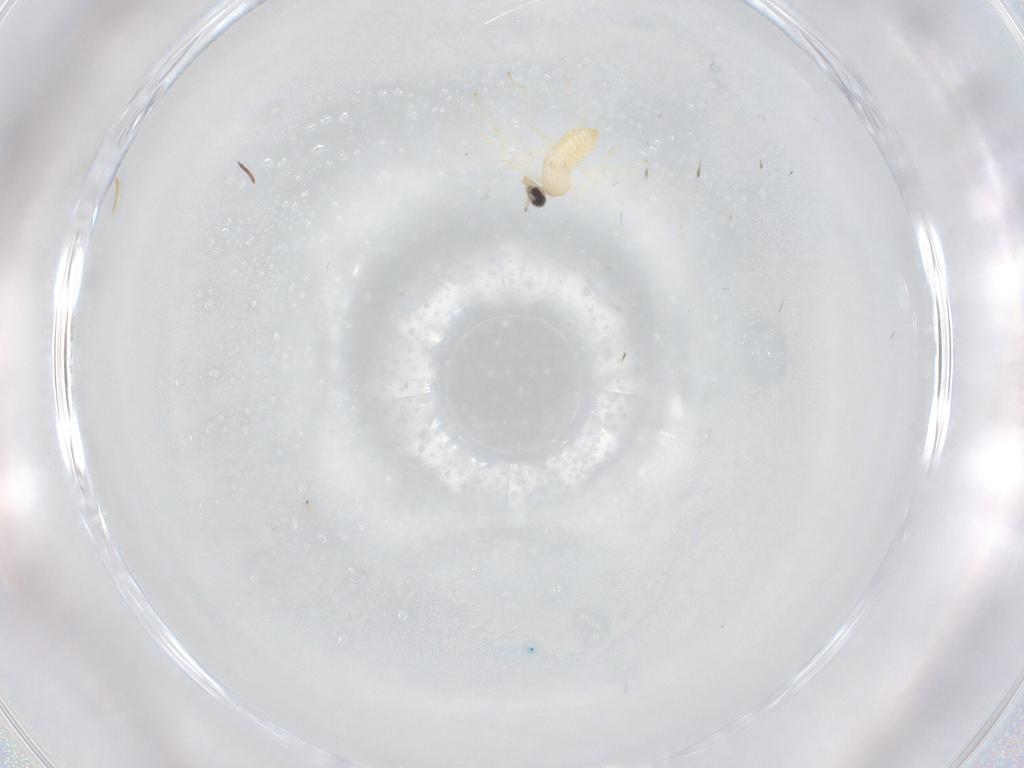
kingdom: Animalia
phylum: Arthropoda
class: Insecta
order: Diptera
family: Cecidomyiidae
